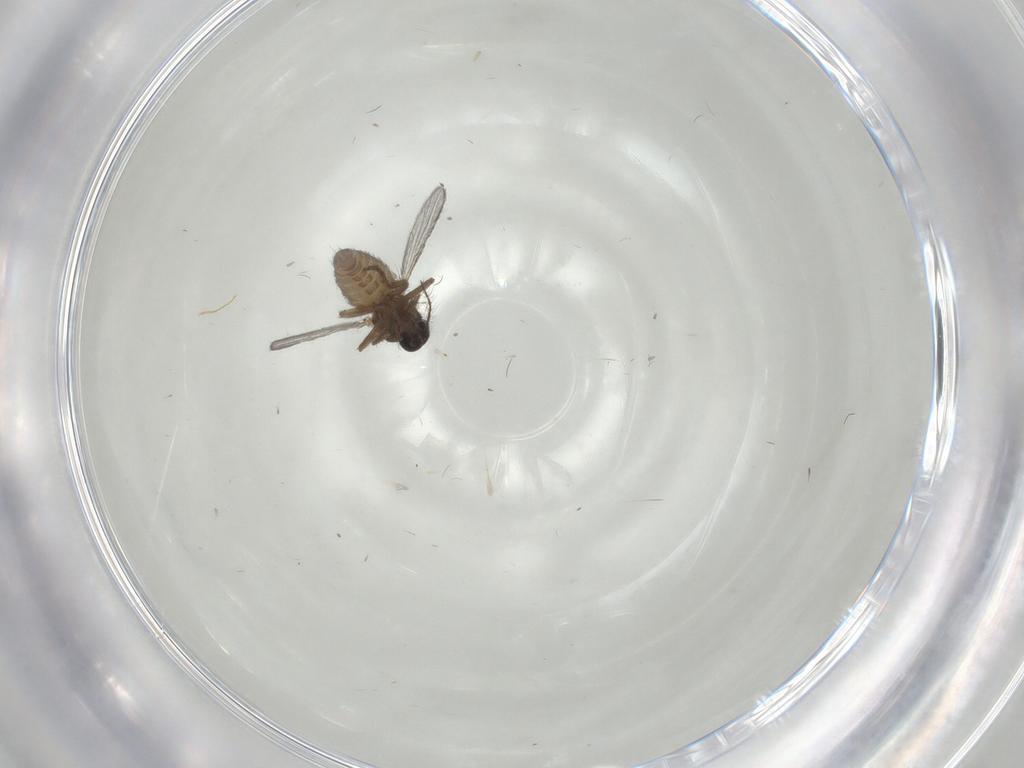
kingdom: Animalia
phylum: Arthropoda
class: Insecta
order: Diptera
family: Ceratopogonidae
